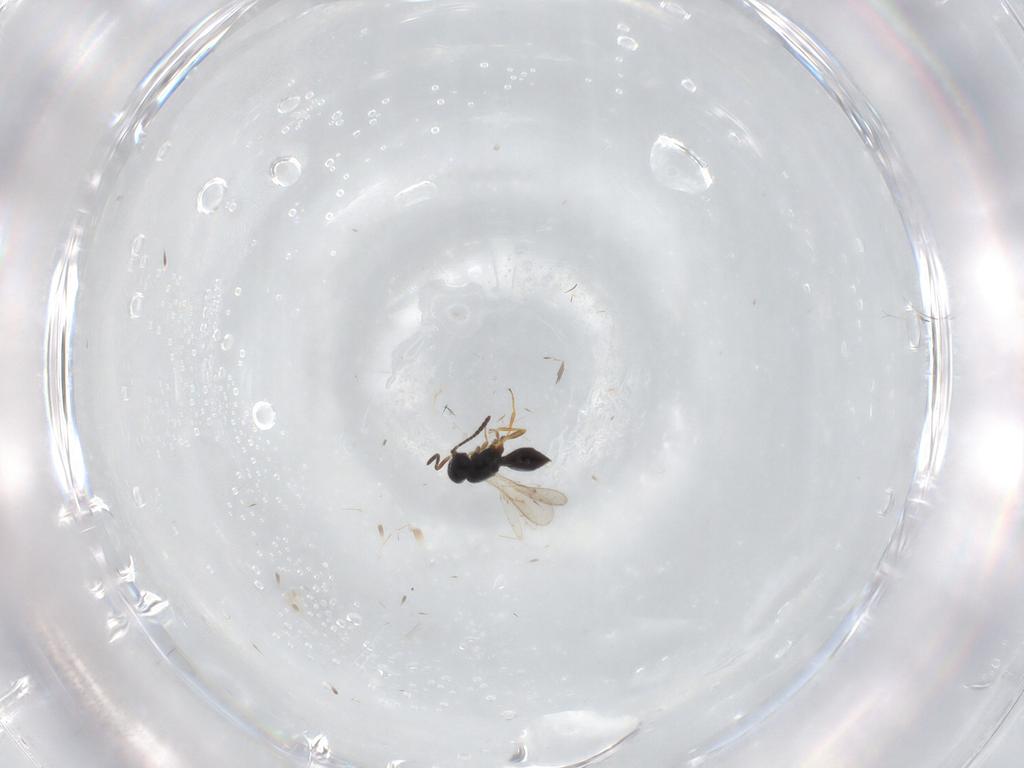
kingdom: Animalia
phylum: Arthropoda
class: Insecta
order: Hymenoptera
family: Scelionidae
